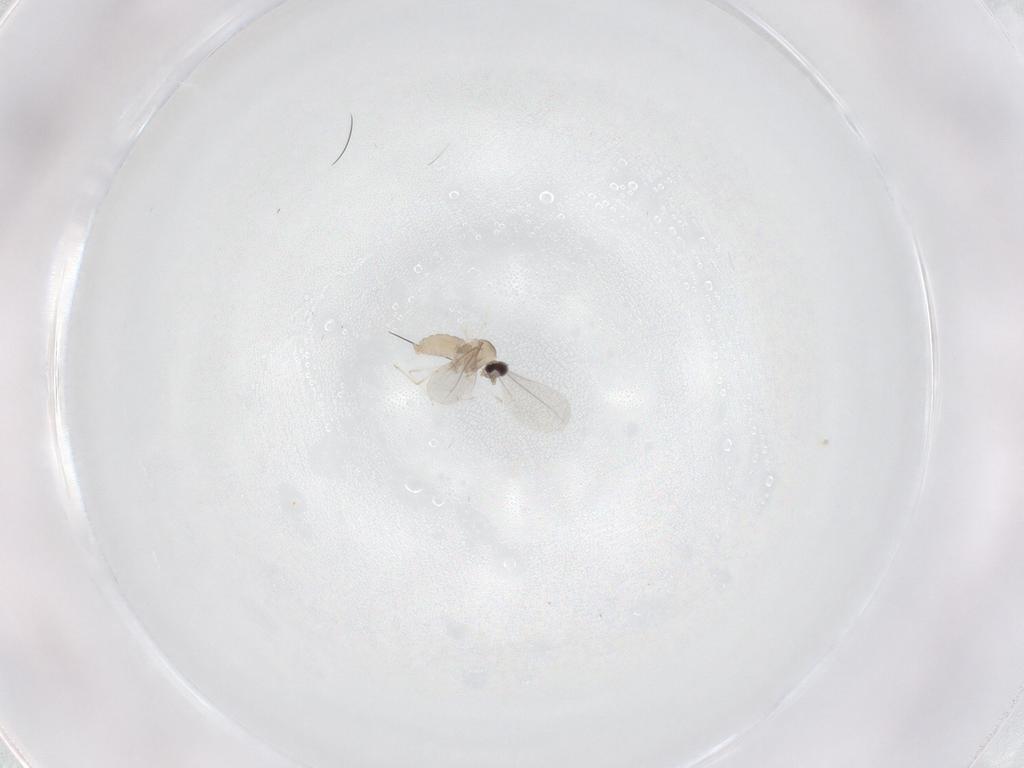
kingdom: Animalia
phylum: Arthropoda
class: Insecta
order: Diptera
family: Cecidomyiidae
